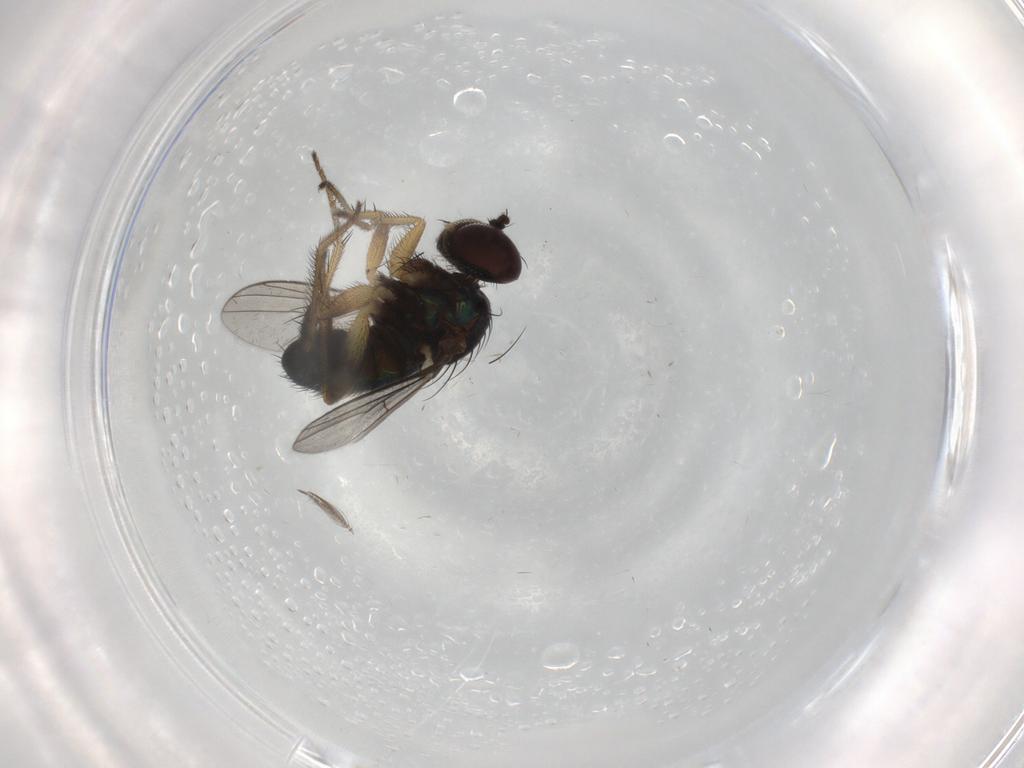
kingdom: Animalia
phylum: Arthropoda
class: Insecta
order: Diptera
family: Dolichopodidae
